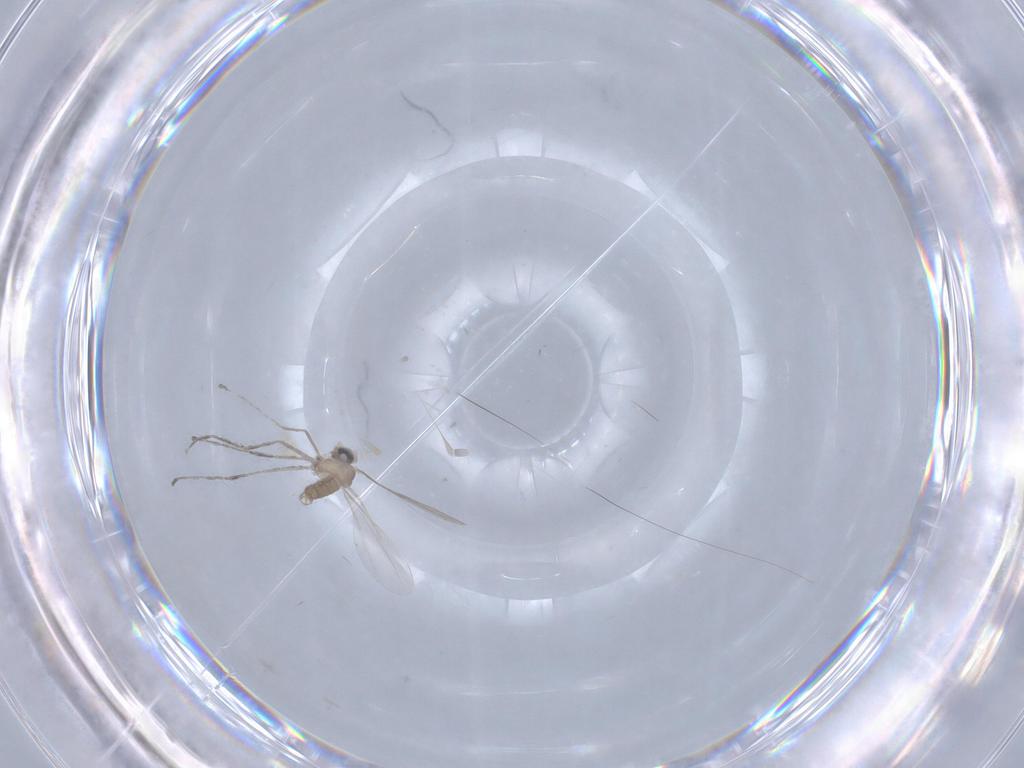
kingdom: Animalia
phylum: Arthropoda
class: Insecta
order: Diptera
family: Cecidomyiidae
